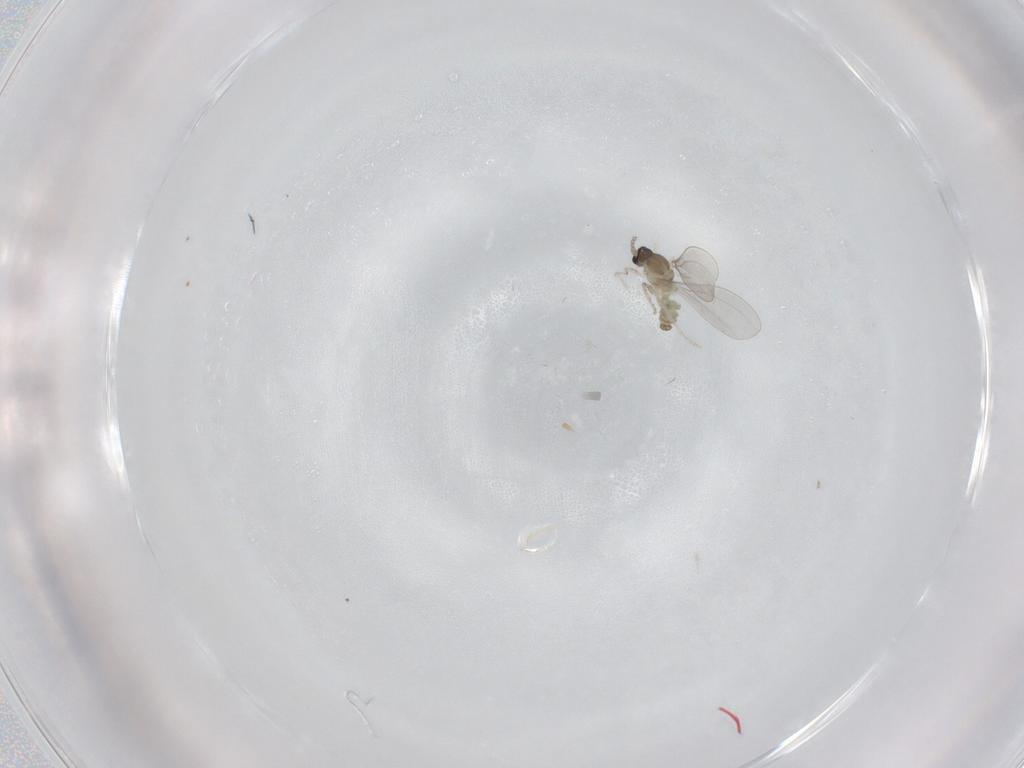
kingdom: Animalia
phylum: Arthropoda
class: Insecta
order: Diptera
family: Cecidomyiidae
